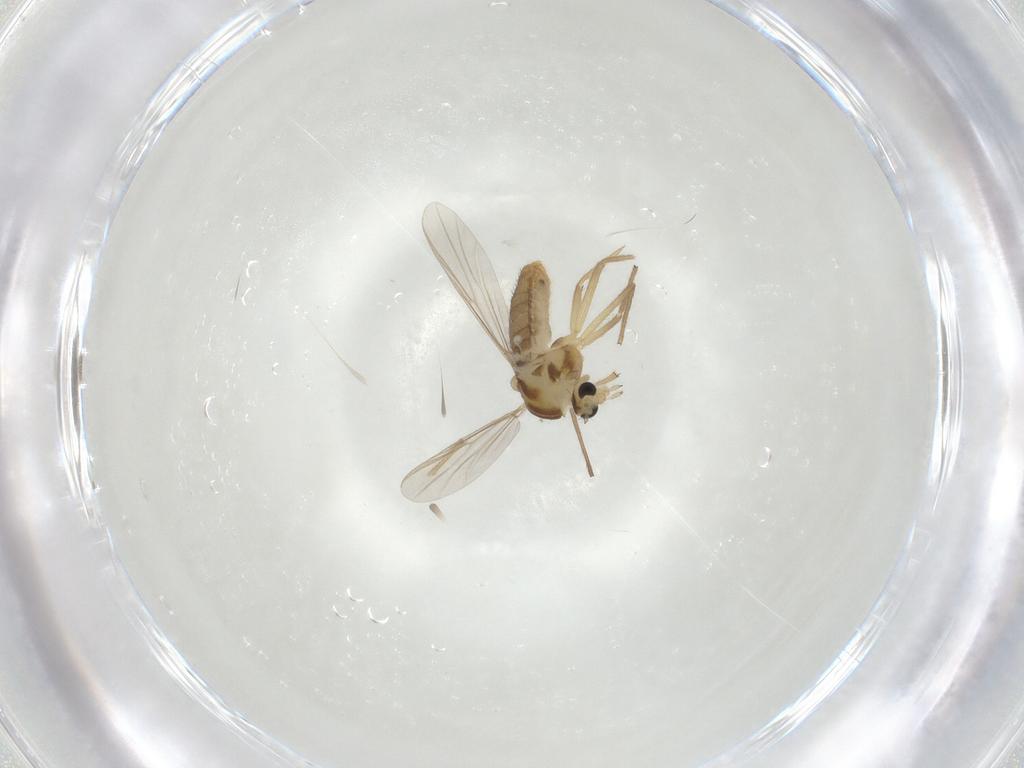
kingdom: Animalia
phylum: Arthropoda
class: Insecta
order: Diptera
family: Chironomidae
